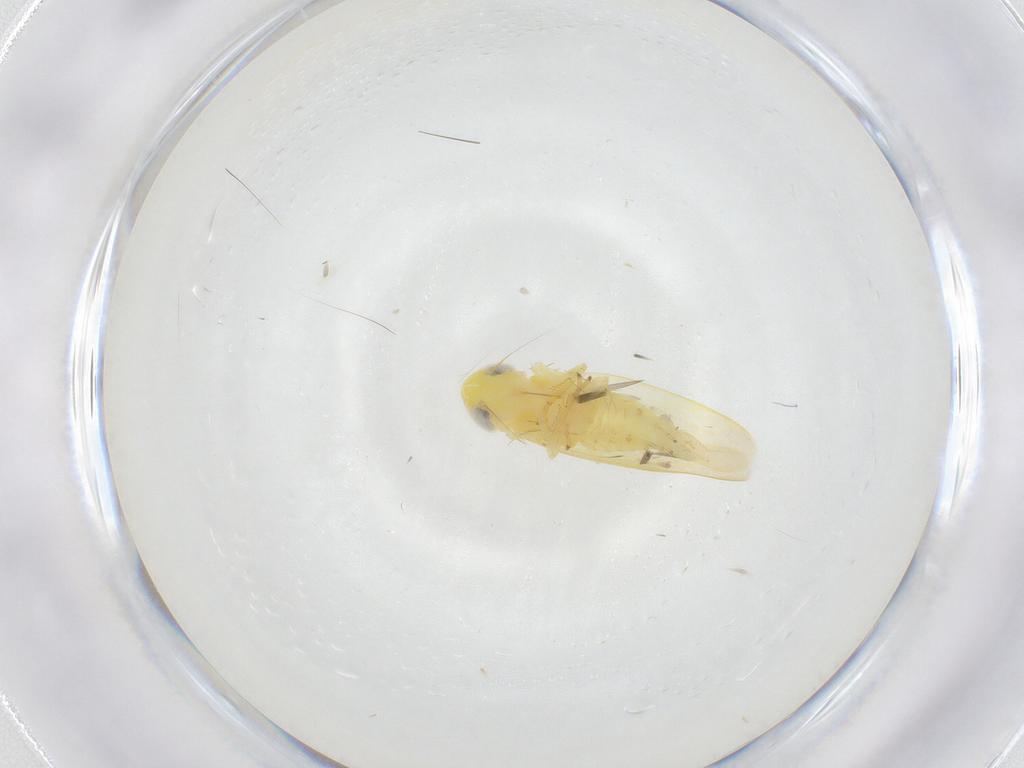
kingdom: Animalia
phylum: Arthropoda
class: Insecta
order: Hemiptera
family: Cicadellidae
